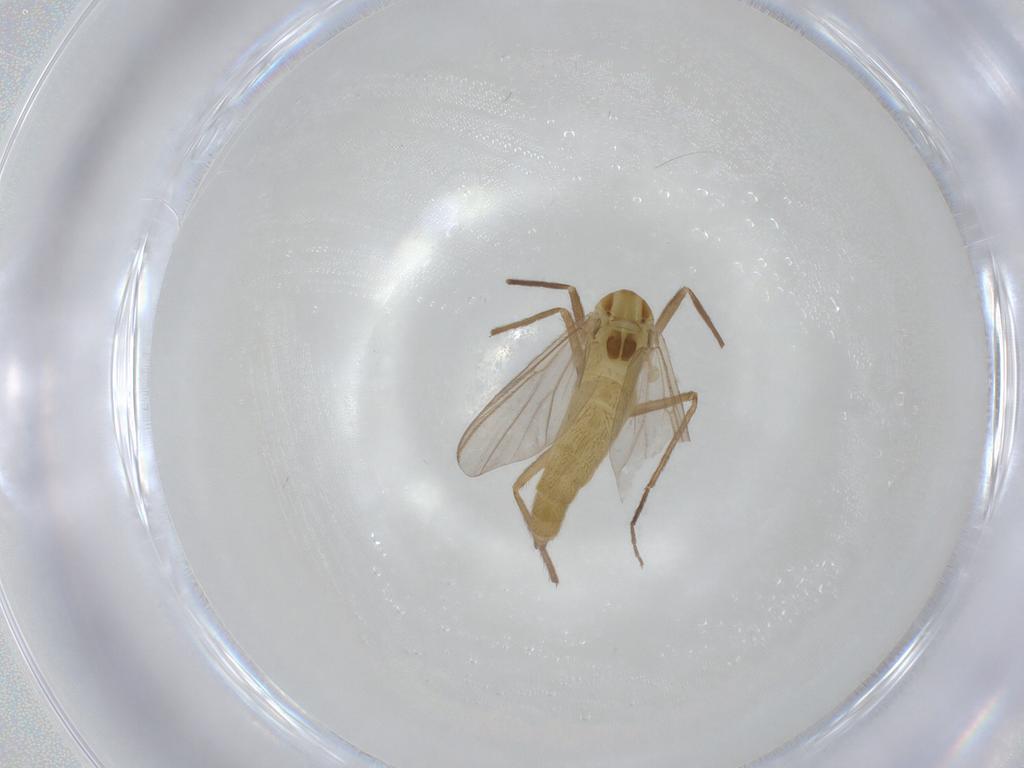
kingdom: Animalia
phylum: Arthropoda
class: Insecta
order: Diptera
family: Chironomidae
